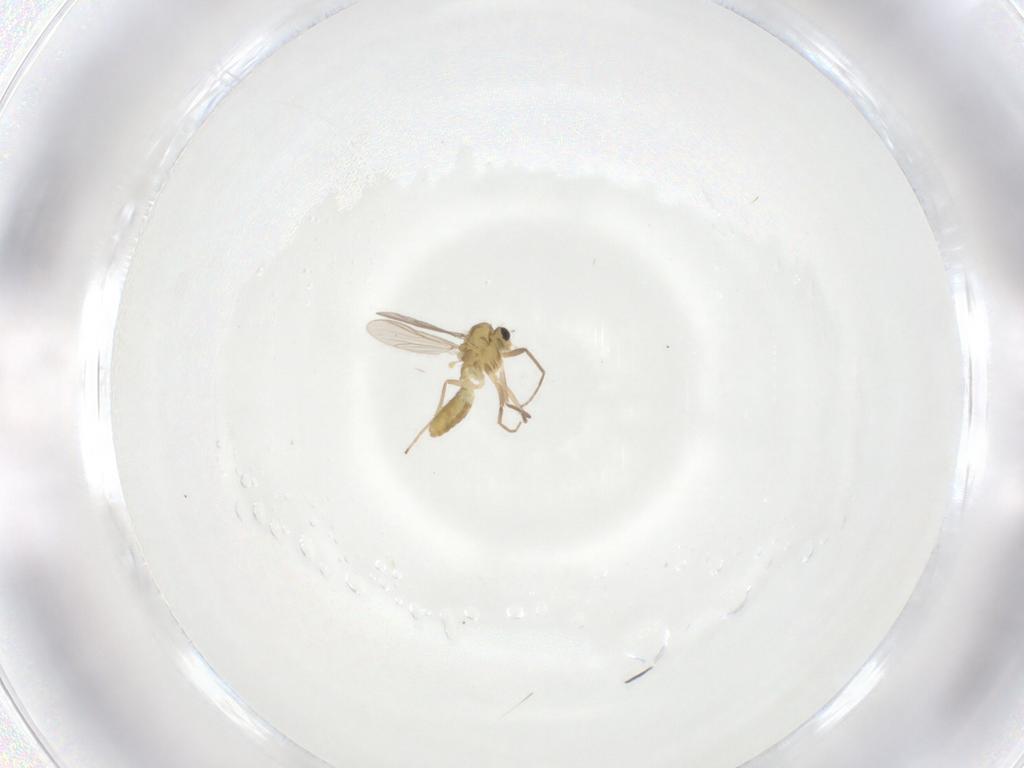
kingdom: Animalia
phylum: Arthropoda
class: Insecta
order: Diptera
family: Chironomidae
